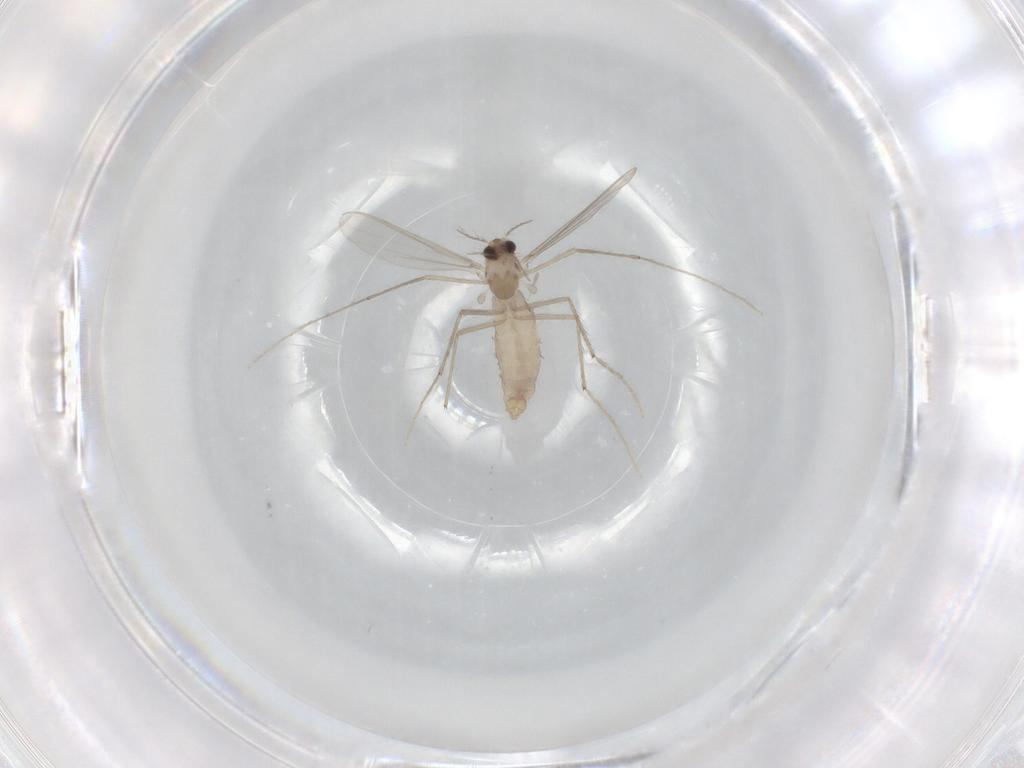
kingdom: Animalia
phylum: Arthropoda
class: Insecta
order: Diptera
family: Chironomidae
